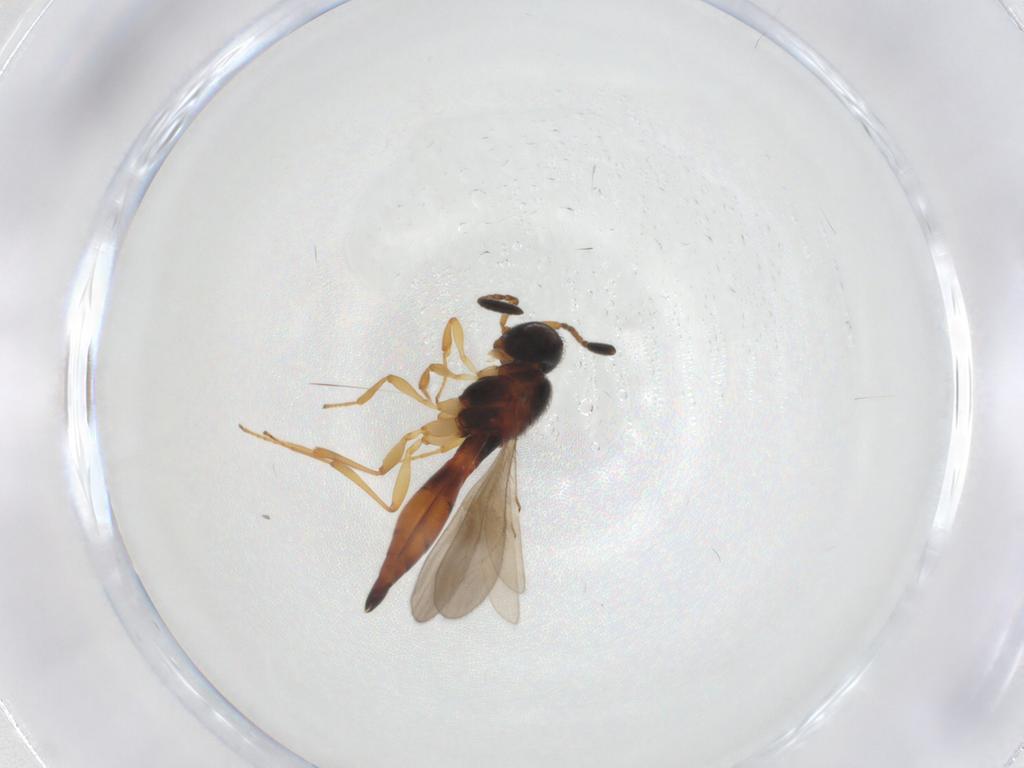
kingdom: Animalia
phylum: Arthropoda
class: Insecta
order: Hymenoptera
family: Scelionidae
